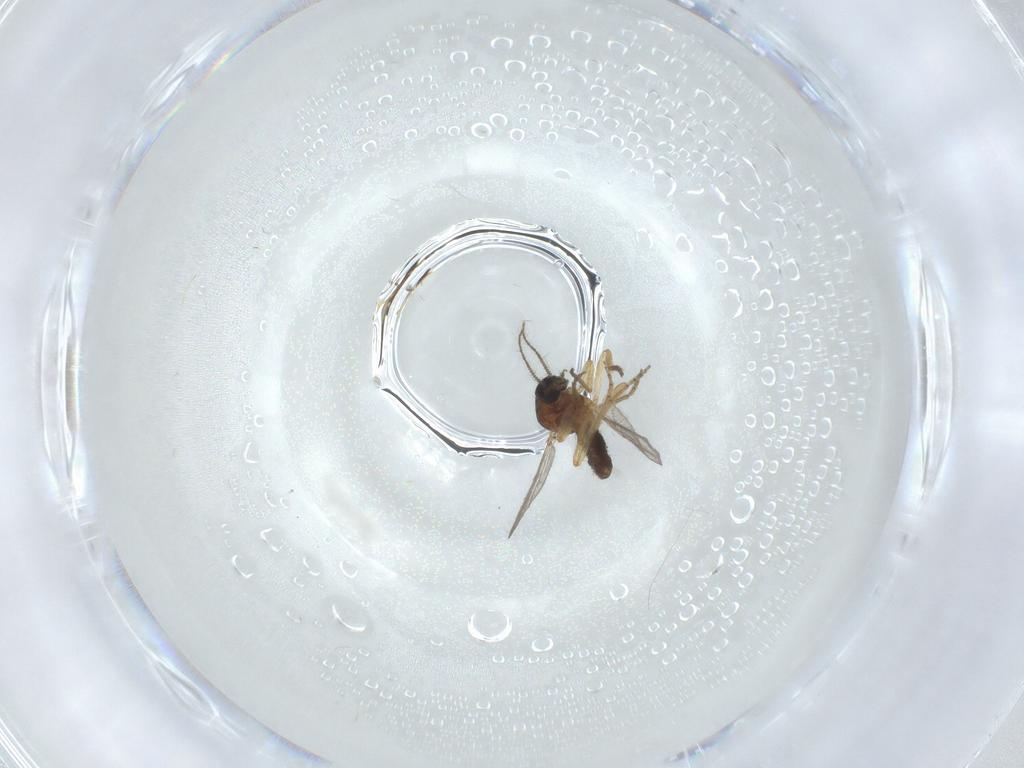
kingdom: Animalia
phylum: Arthropoda
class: Insecta
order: Diptera
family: Ceratopogonidae
